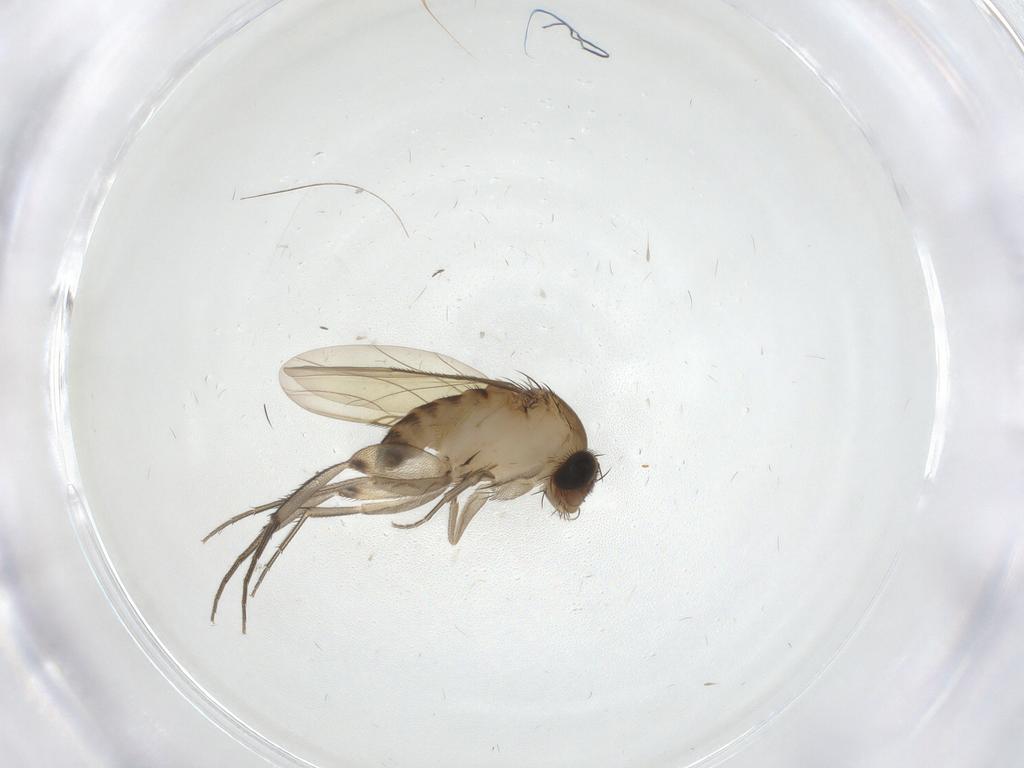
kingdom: Animalia
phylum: Arthropoda
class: Insecta
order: Diptera
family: Phoridae
